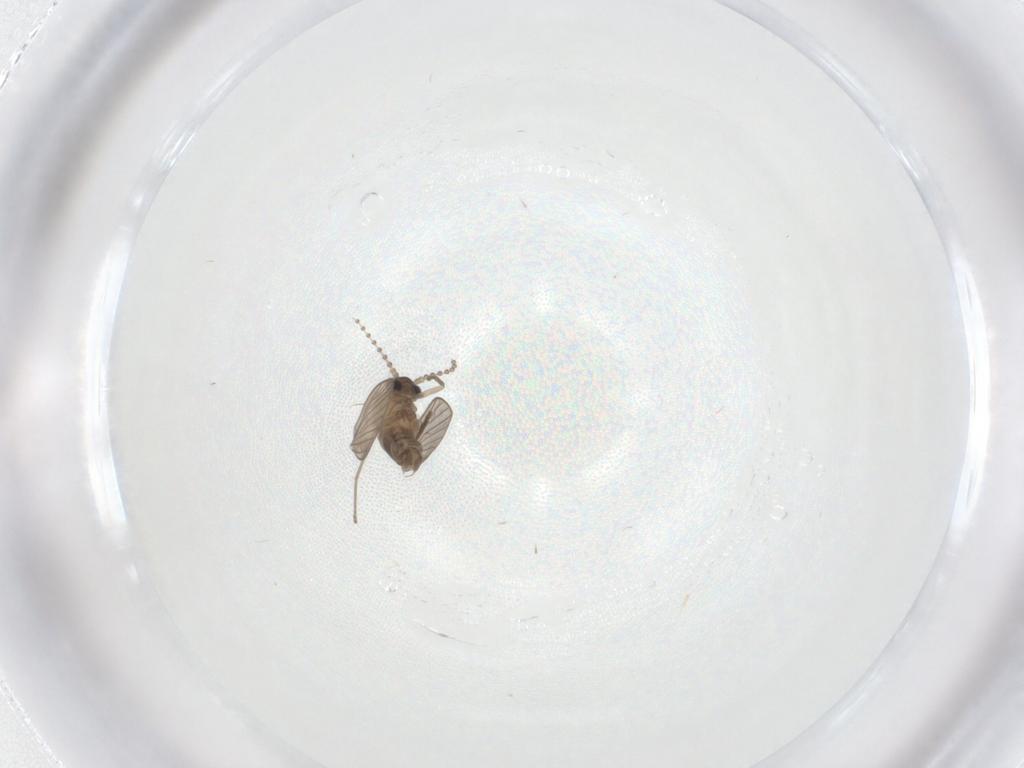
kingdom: Animalia
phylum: Arthropoda
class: Insecta
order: Diptera
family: Psychodidae
